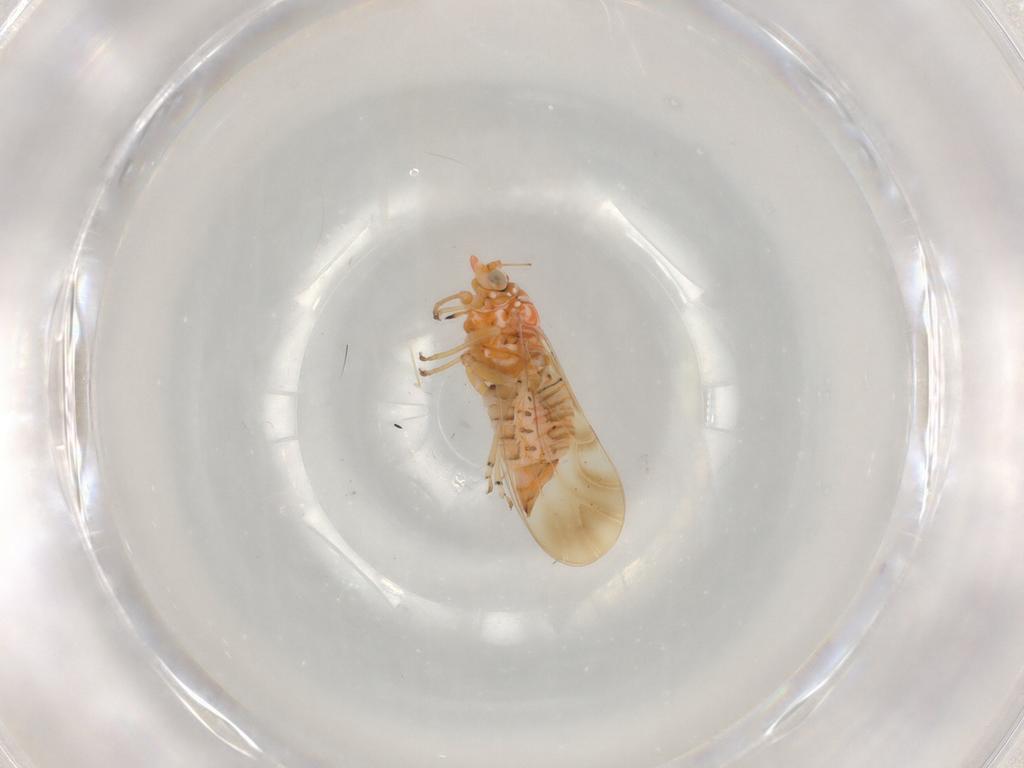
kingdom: Animalia
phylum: Arthropoda
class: Insecta
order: Hemiptera
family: Psyllidae
